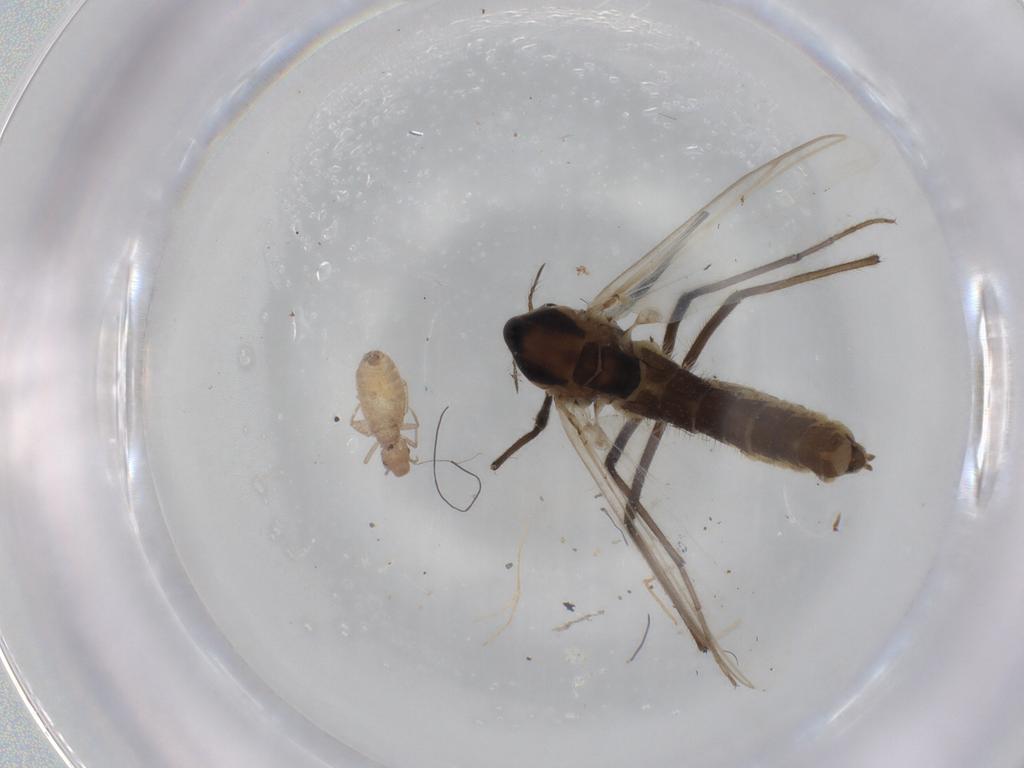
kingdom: Animalia
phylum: Arthropoda
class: Insecta
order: Diptera
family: Chironomidae
